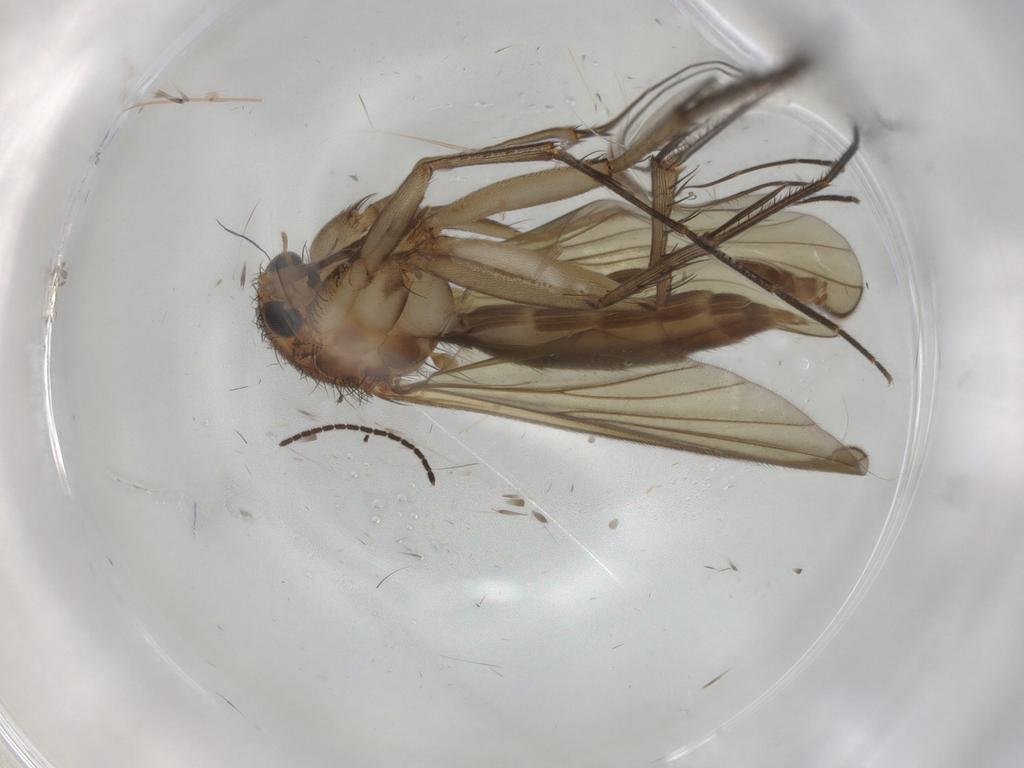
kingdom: Animalia
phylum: Arthropoda
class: Insecta
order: Diptera
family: Mycetophilidae
